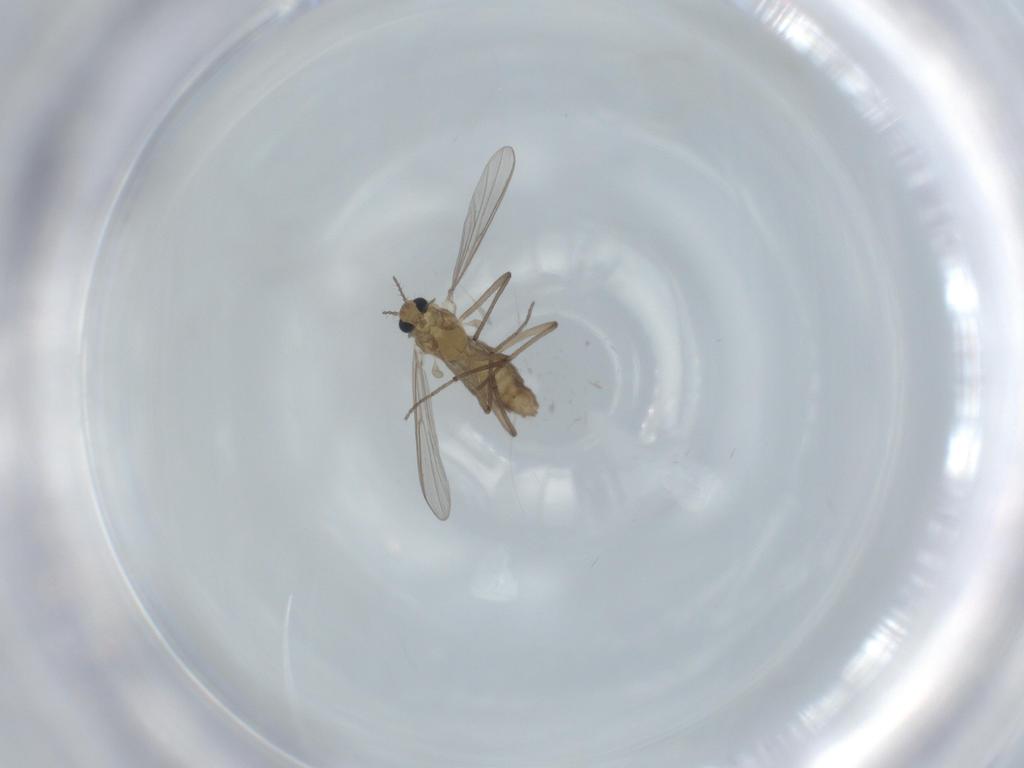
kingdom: Animalia
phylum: Arthropoda
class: Insecta
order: Diptera
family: Chironomidae
